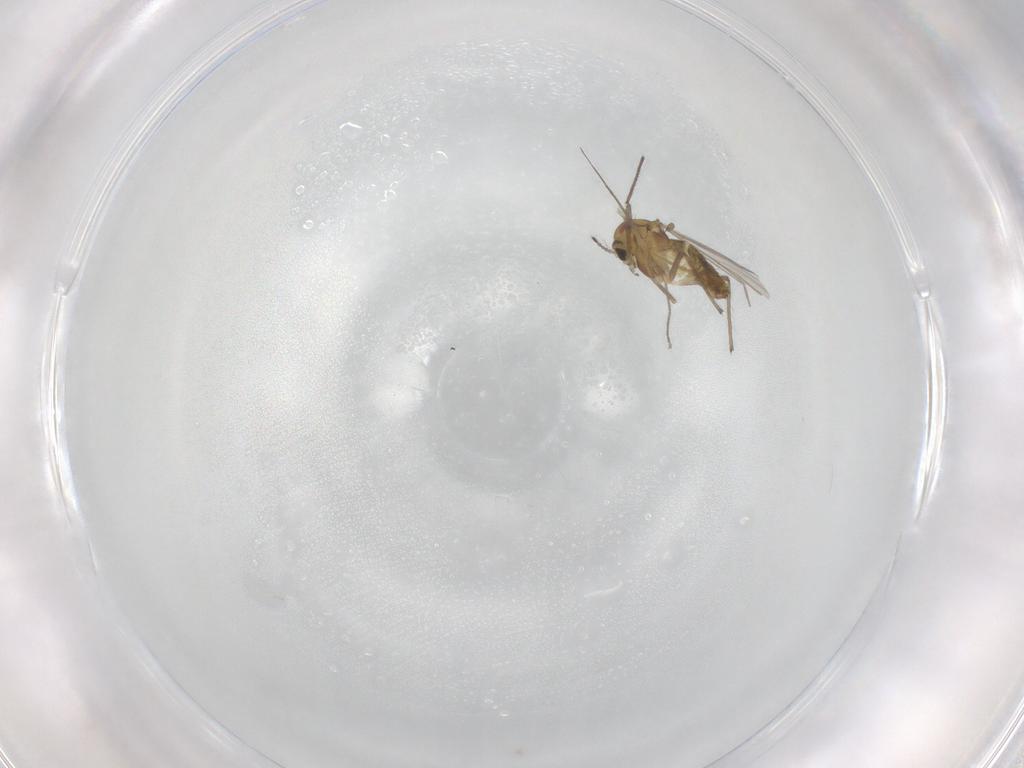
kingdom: Animalia
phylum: Arthropoda
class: Insecta
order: Diptera
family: Chironomidae
